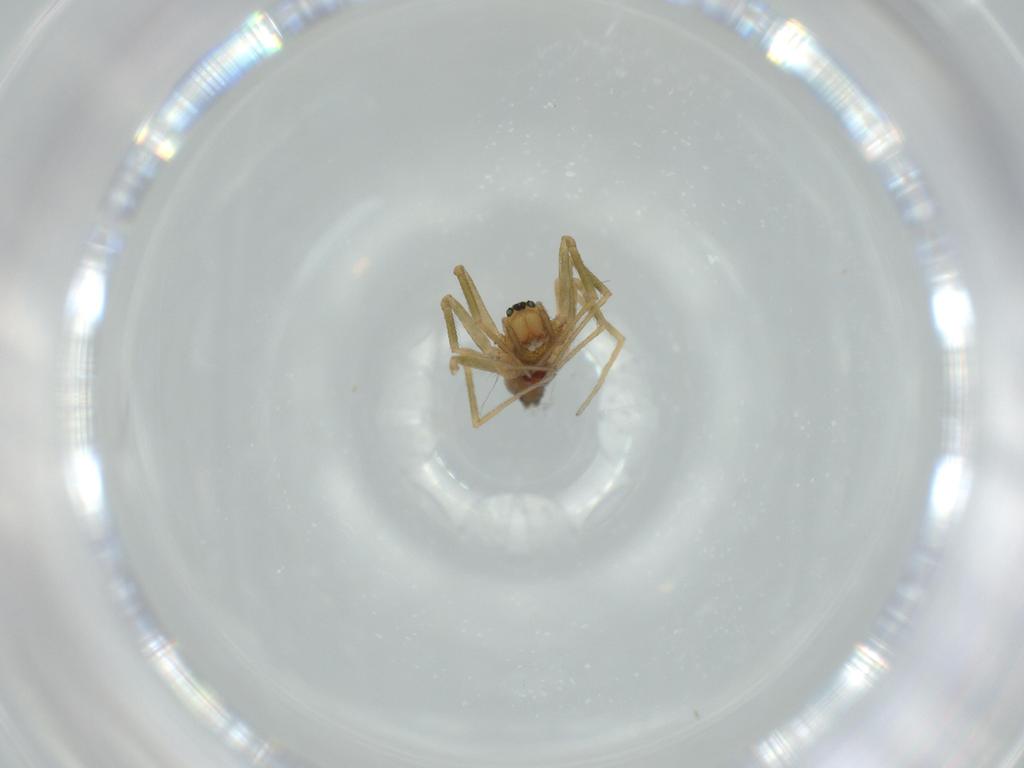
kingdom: Animalia
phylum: Arthropoda
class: Arachnida
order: Araneae
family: Linyphiidae
